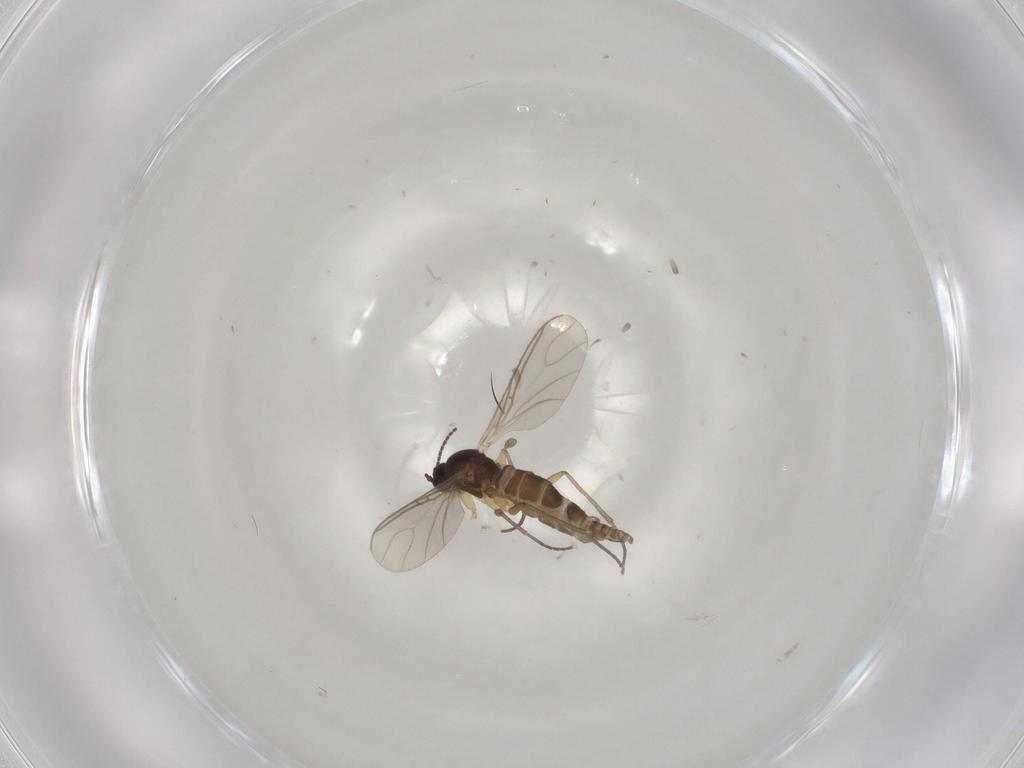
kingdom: Animalia
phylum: Arthropoda
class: Insecta
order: Diptera
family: Sciaridae
